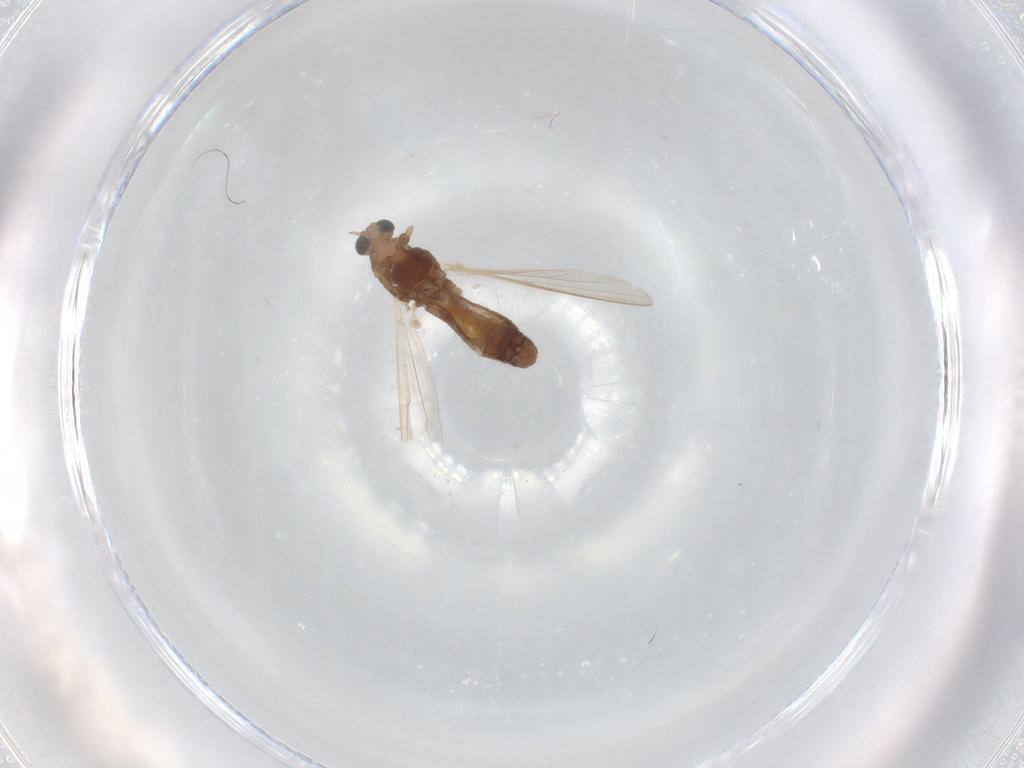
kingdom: Animalia
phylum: Arthropoda
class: Insecta
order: Diptera
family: Chironomidae
